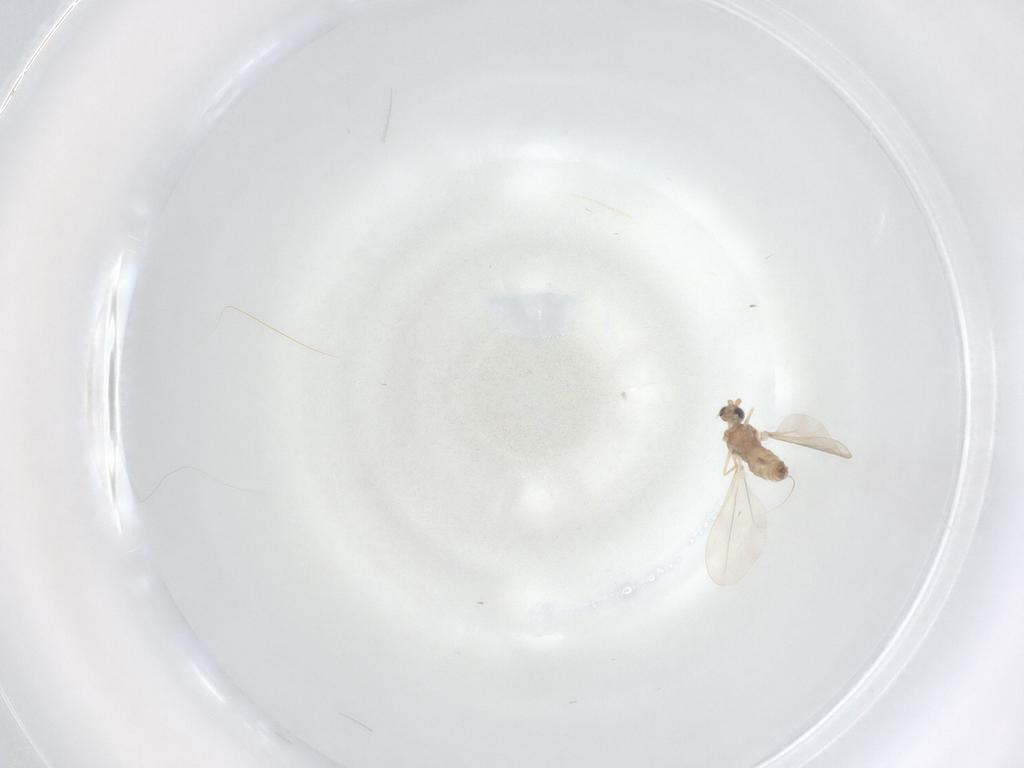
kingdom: Animalia
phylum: Arthropoda
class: Insecta
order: Diptera
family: Cecidomyiidae
